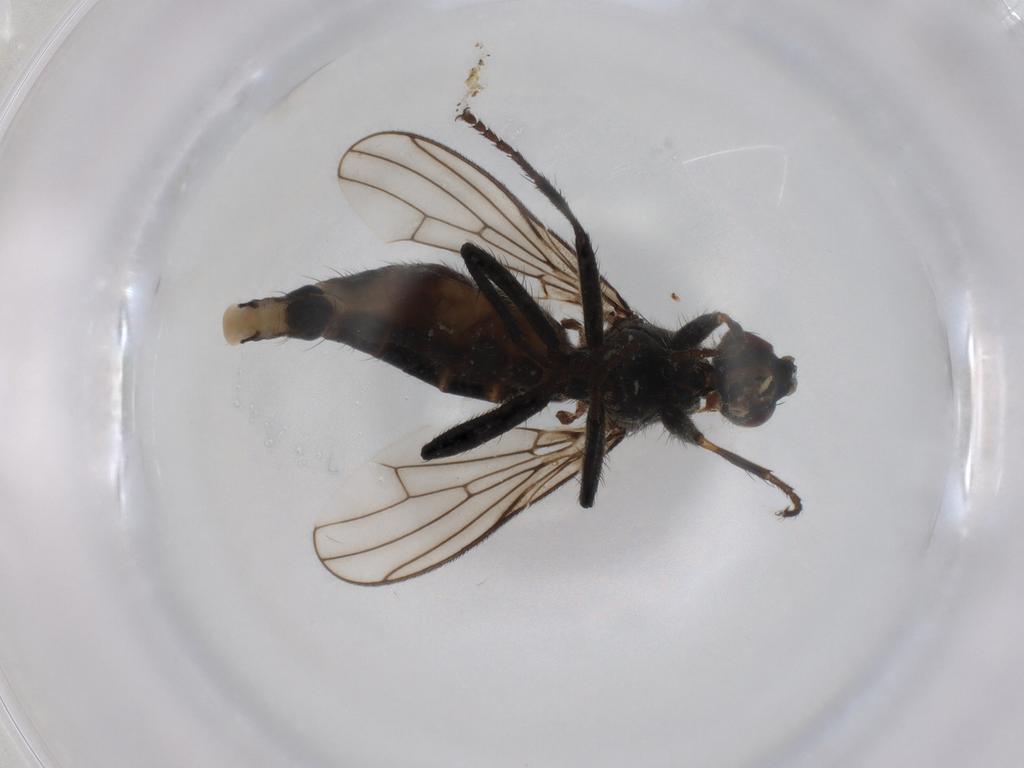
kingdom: Animalia
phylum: Arthropoda
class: Insecta
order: Diptera
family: Scathophagidae
